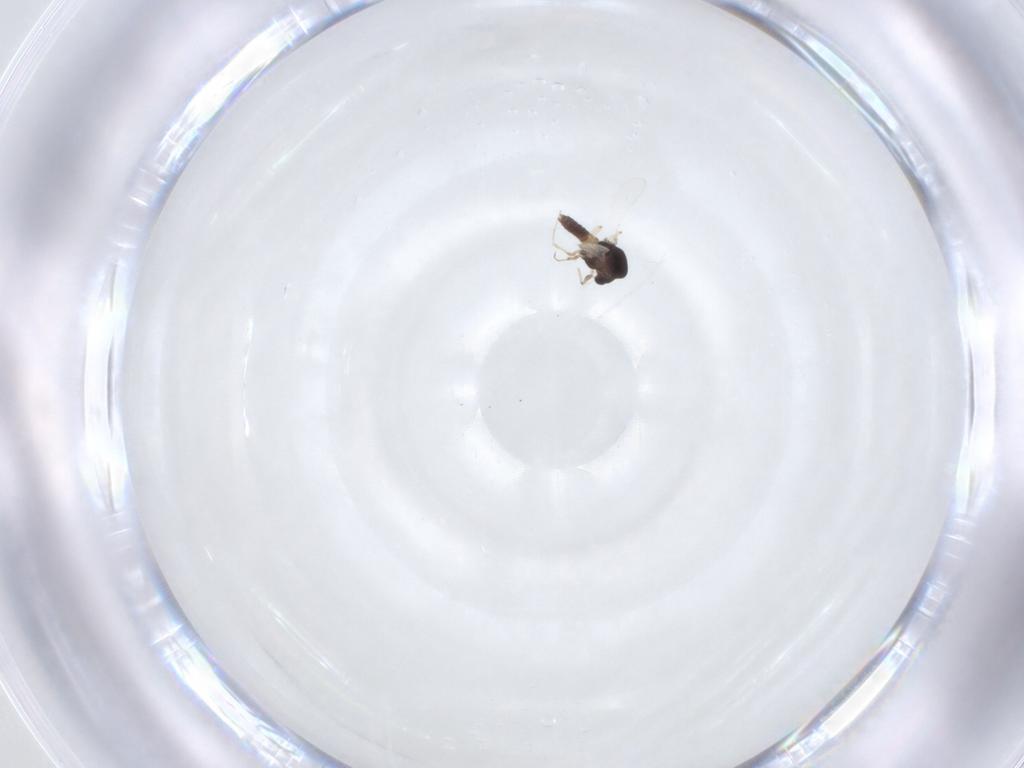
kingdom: Animalia
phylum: Arthropoda
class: Insecta
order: Diptera
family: Chironomidae
